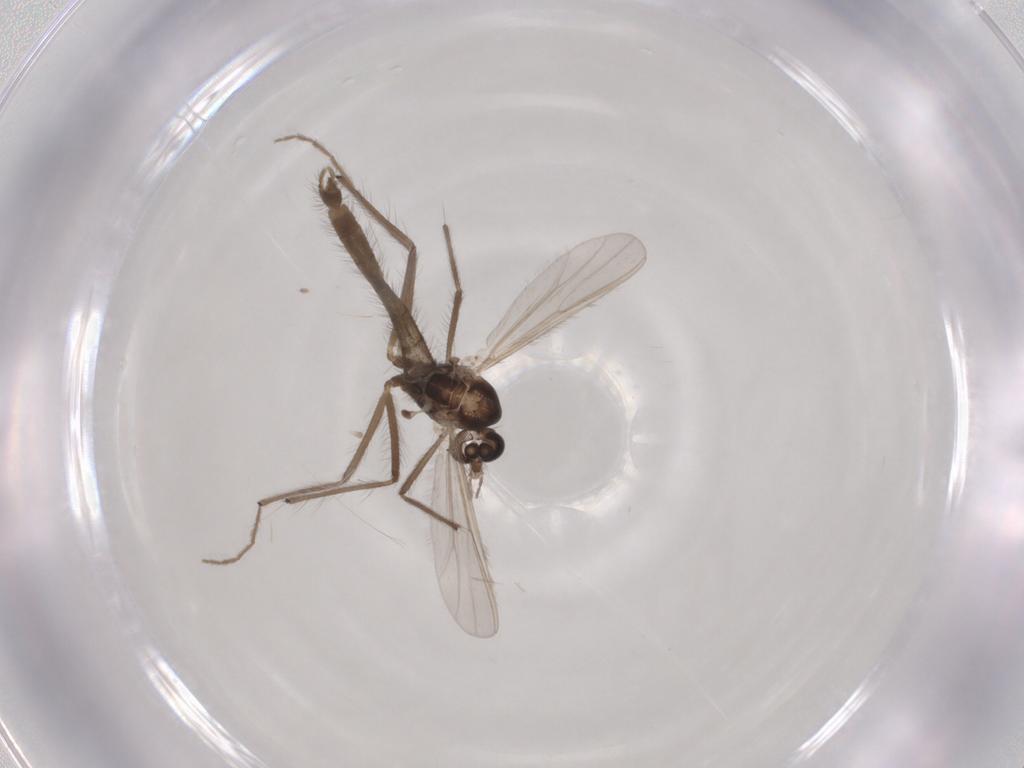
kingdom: Animalia
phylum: Arthropoda
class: Insecta
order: Diptera
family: Chironomidae
